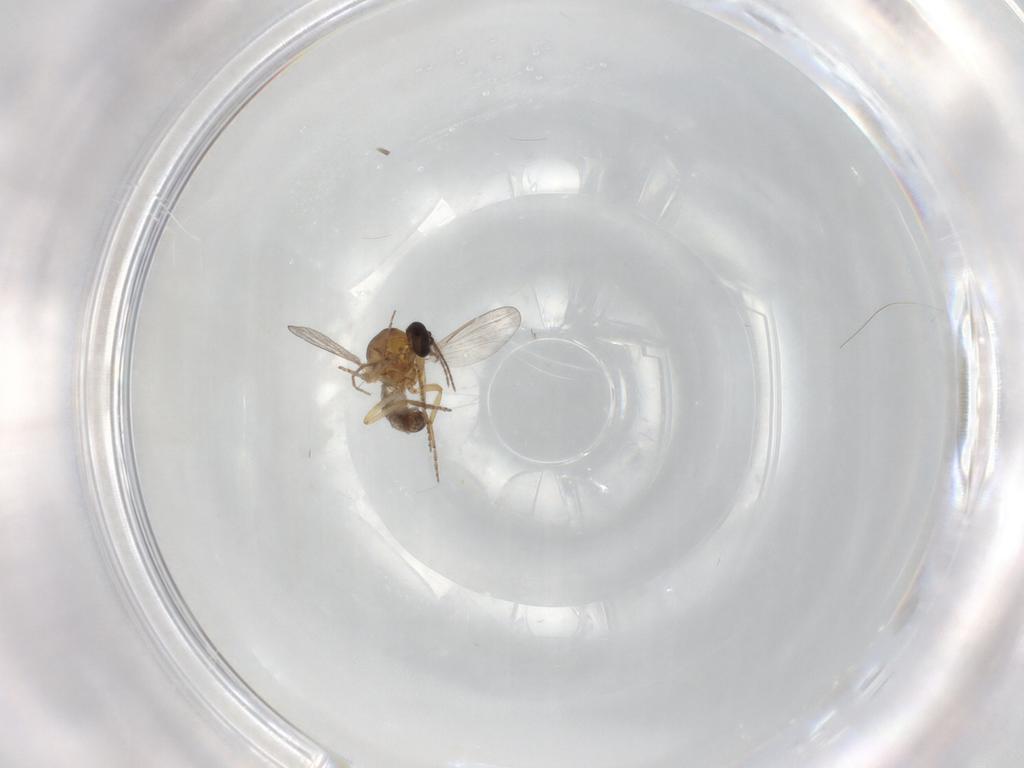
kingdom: Animalia
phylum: Arthropoda
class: Insecta
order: Diptera
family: Chironomidae
